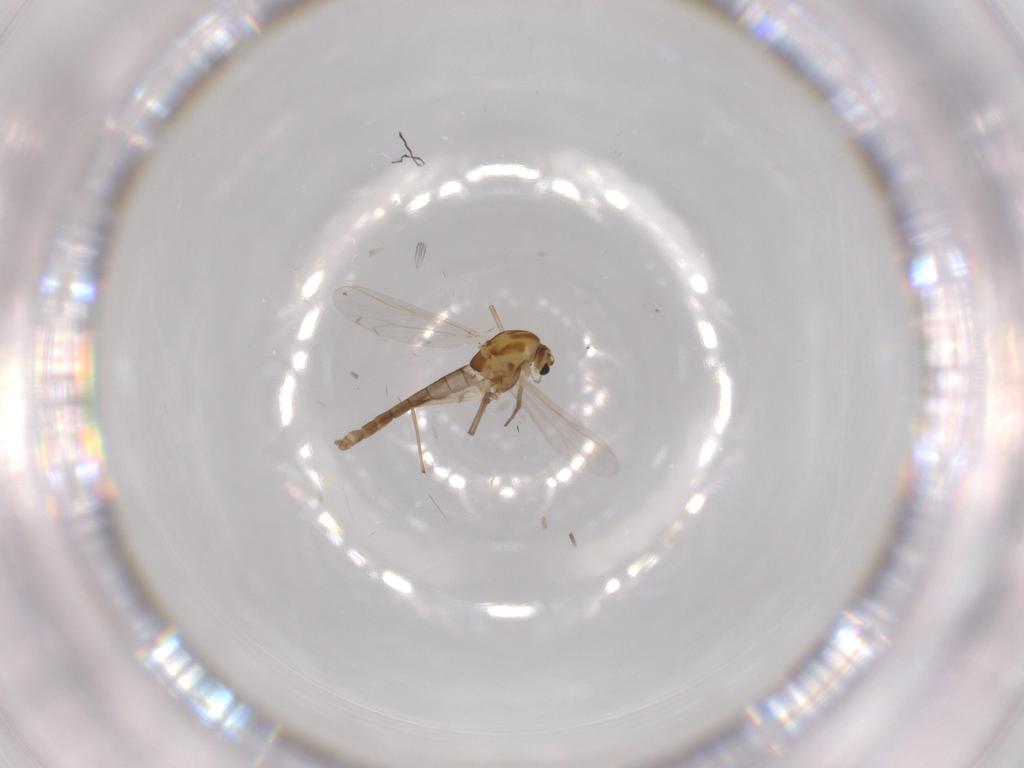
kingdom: Animalia
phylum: Arthropoda
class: Insecta
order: Diptera
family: Chironomidae
